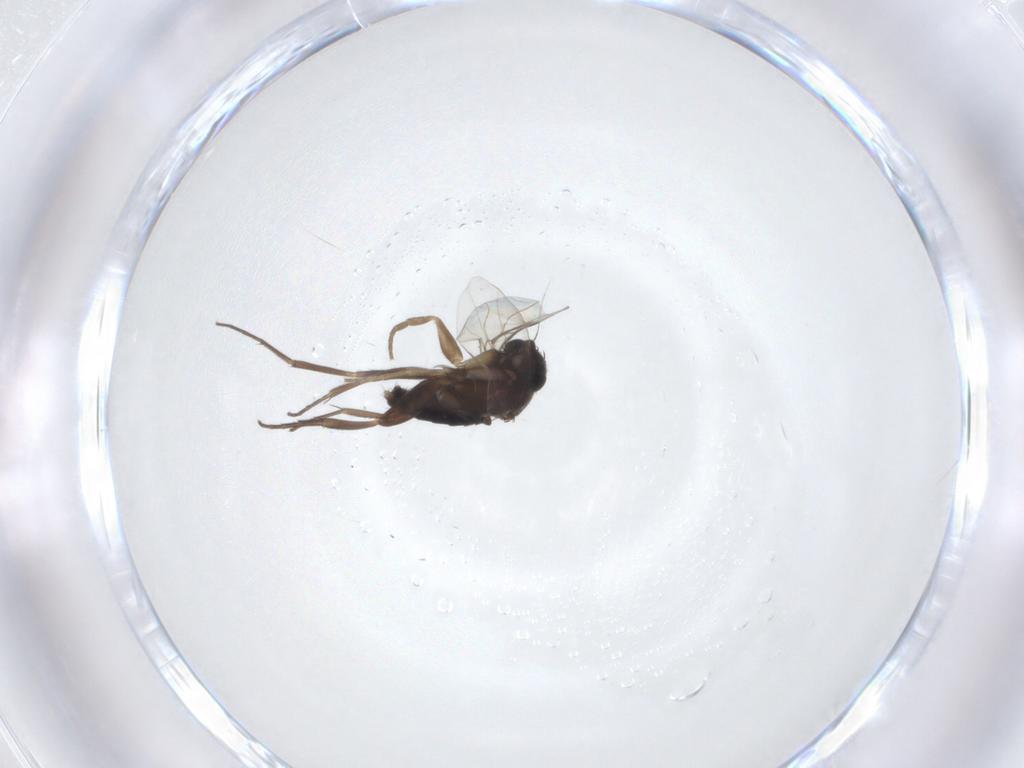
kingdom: Animalia
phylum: Arthropoda
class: Insecta
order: Diptera
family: Phoridae
